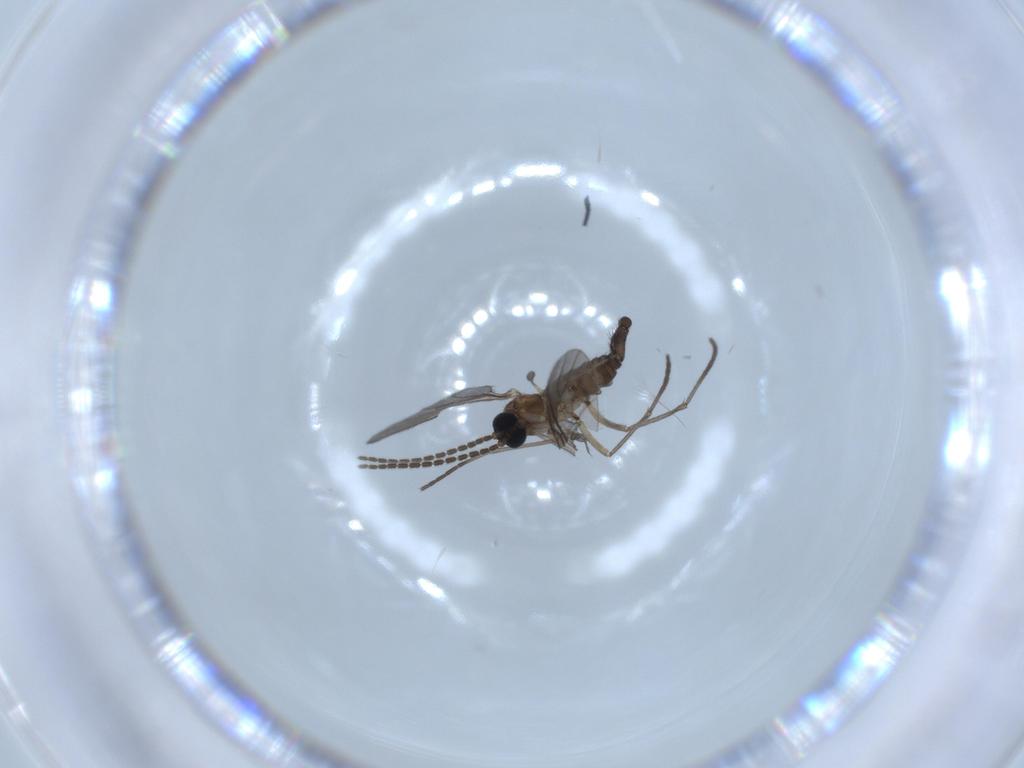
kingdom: Animalia
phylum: Arthropoda
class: Insecta
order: Diptera
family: Sciaridae
